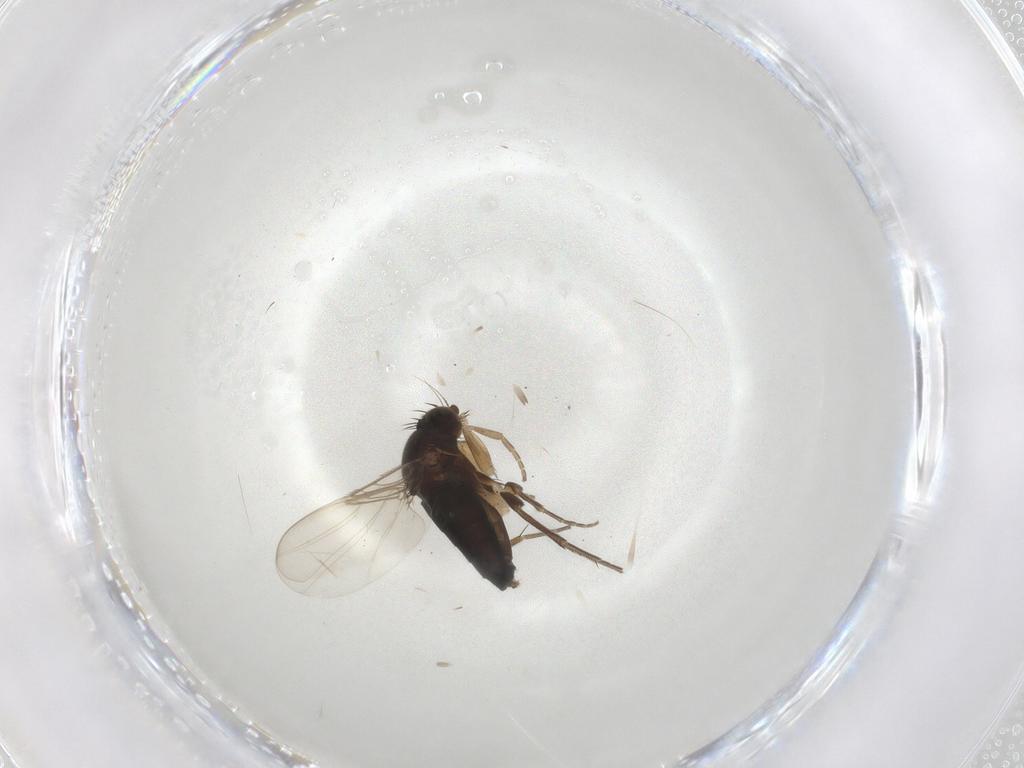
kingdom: Animalia
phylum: Arthropoda
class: Insecta
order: Diptera
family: Phoridae
